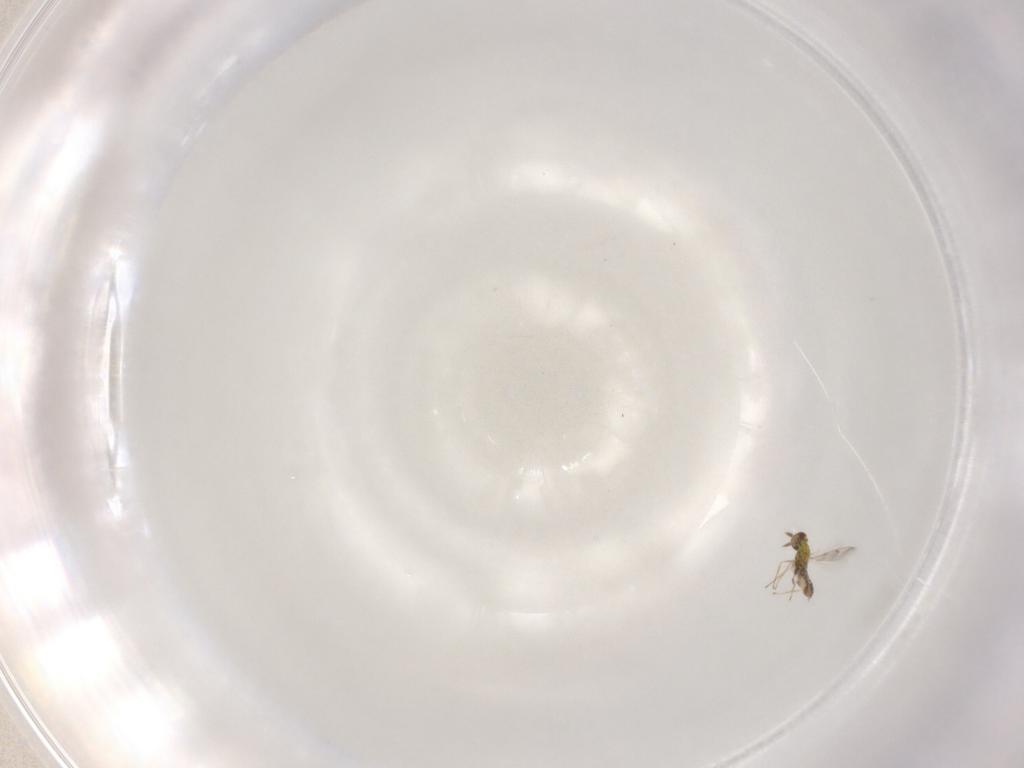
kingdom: Animalia
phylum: Arthropoda
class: Insecta
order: Hymenoptera
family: Eulophidae
